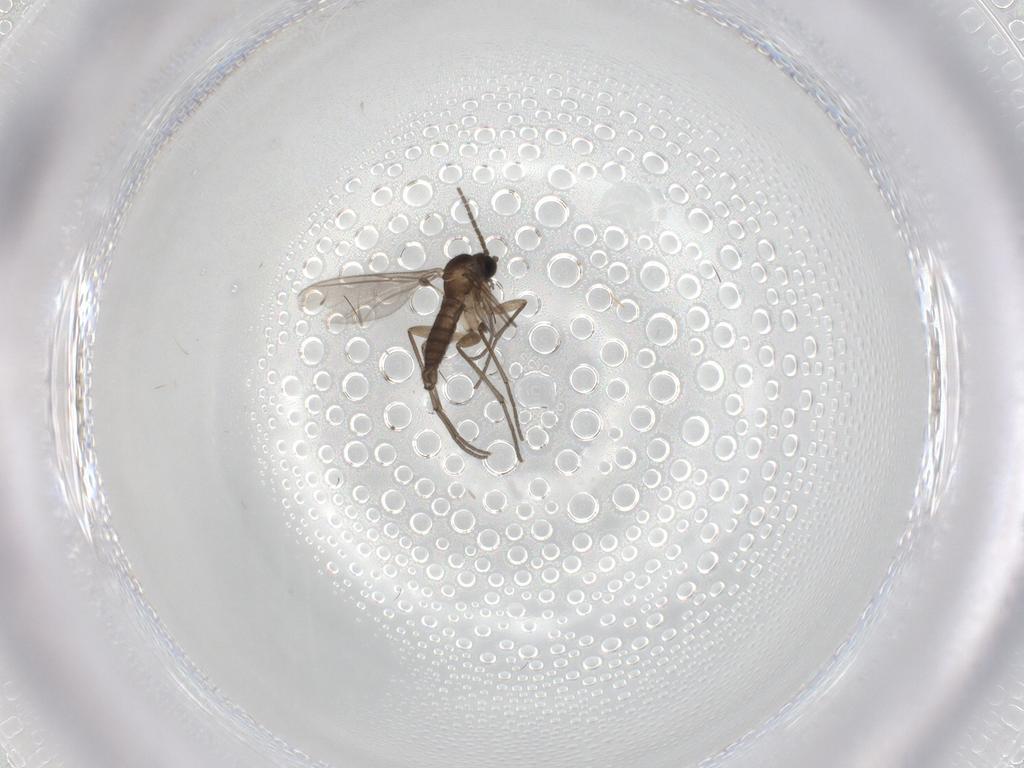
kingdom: Animalia
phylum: Arthropoda
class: Insecta
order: Diptera
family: Sciaridae
